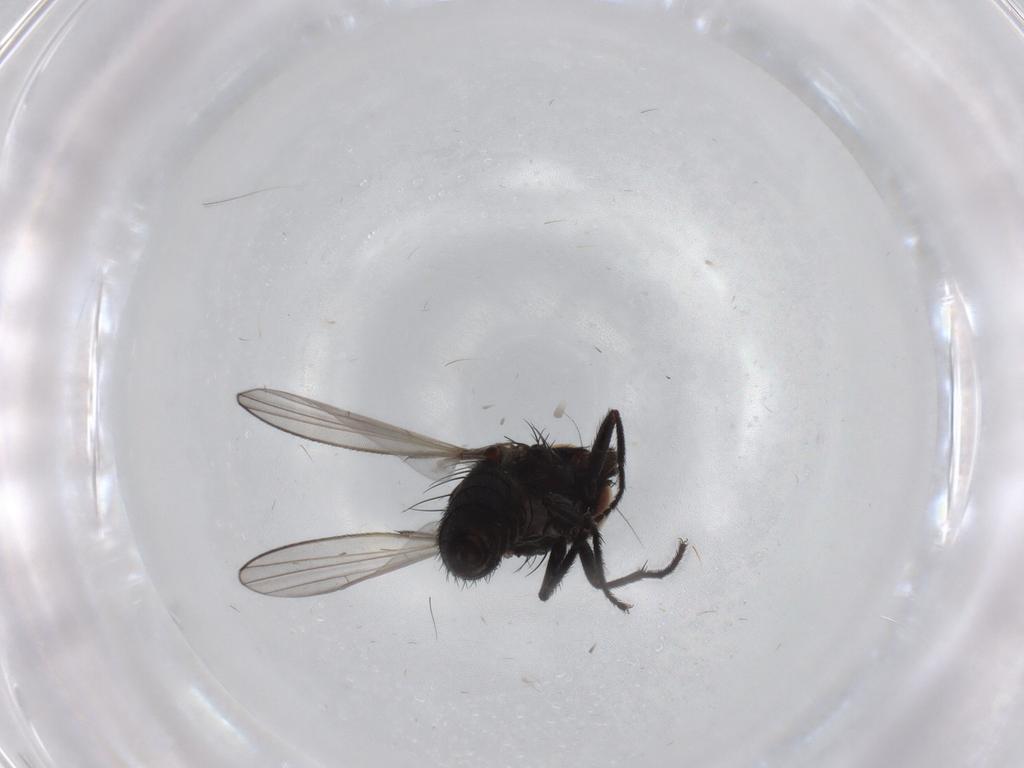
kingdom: Animalia
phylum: Arthropoda
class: Insecta
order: Diptera
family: Milichiidae
